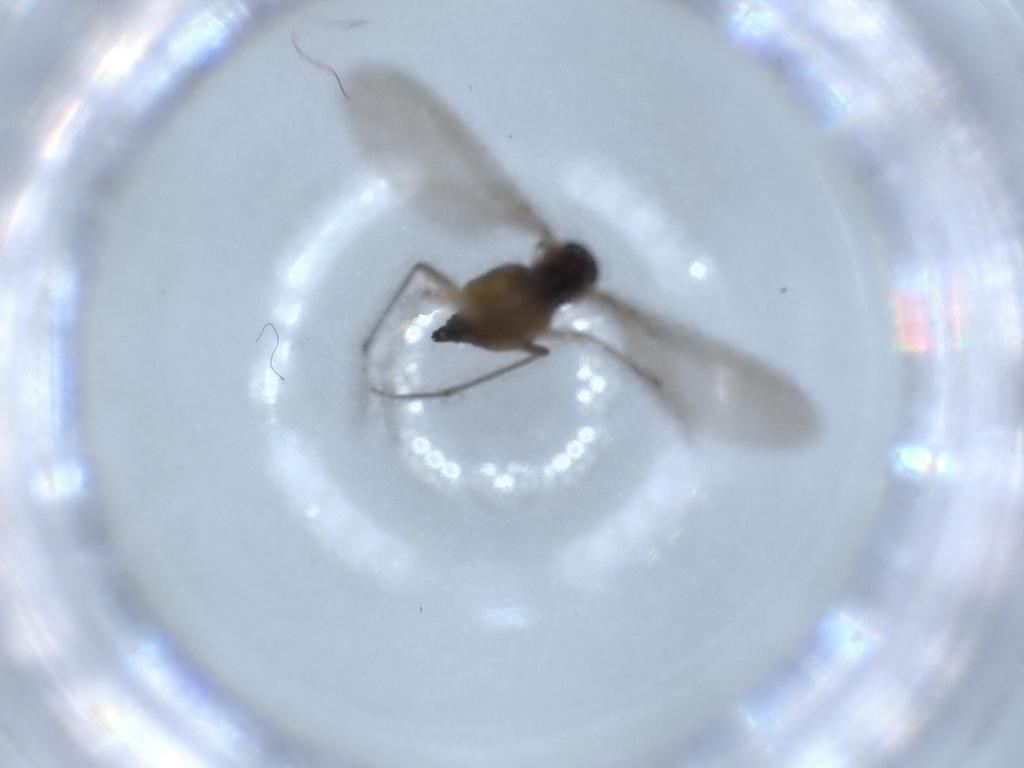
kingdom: Animalia
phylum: Arthropoda
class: Insecta
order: Diptera
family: Sciaridae
